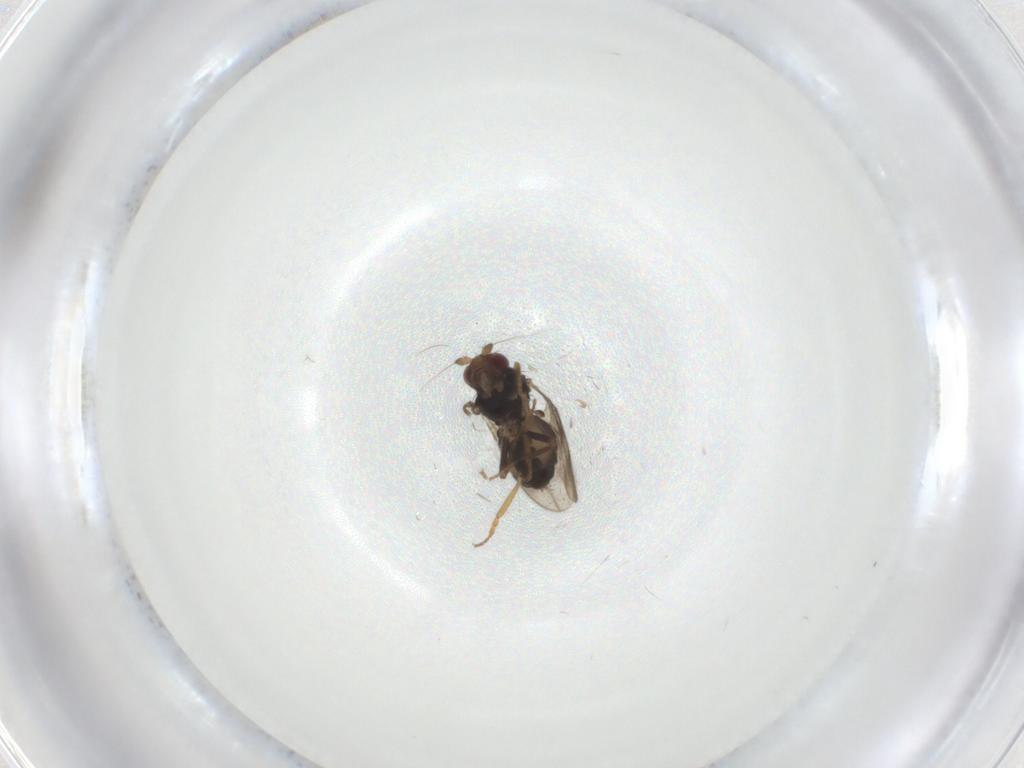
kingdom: Animalia
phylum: Arthropoda
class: Insecta
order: Diptera
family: Sphaeroceridae
